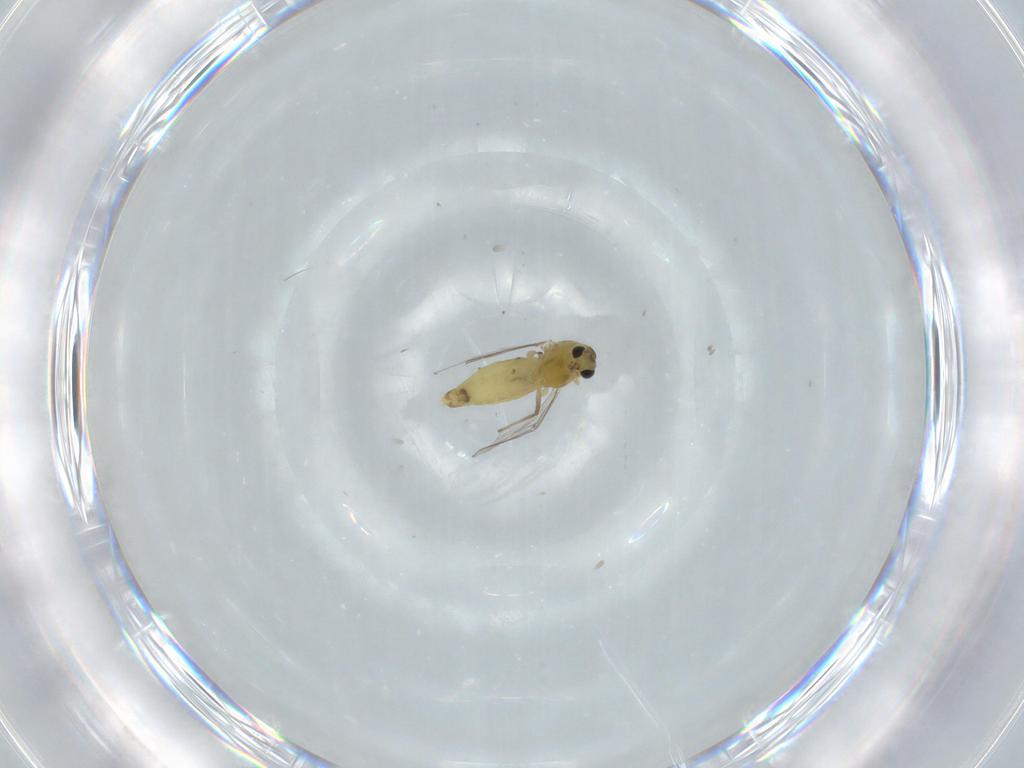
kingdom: Animalia
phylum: Arthropoda
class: Insecta
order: Diptera
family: Chironomidae
